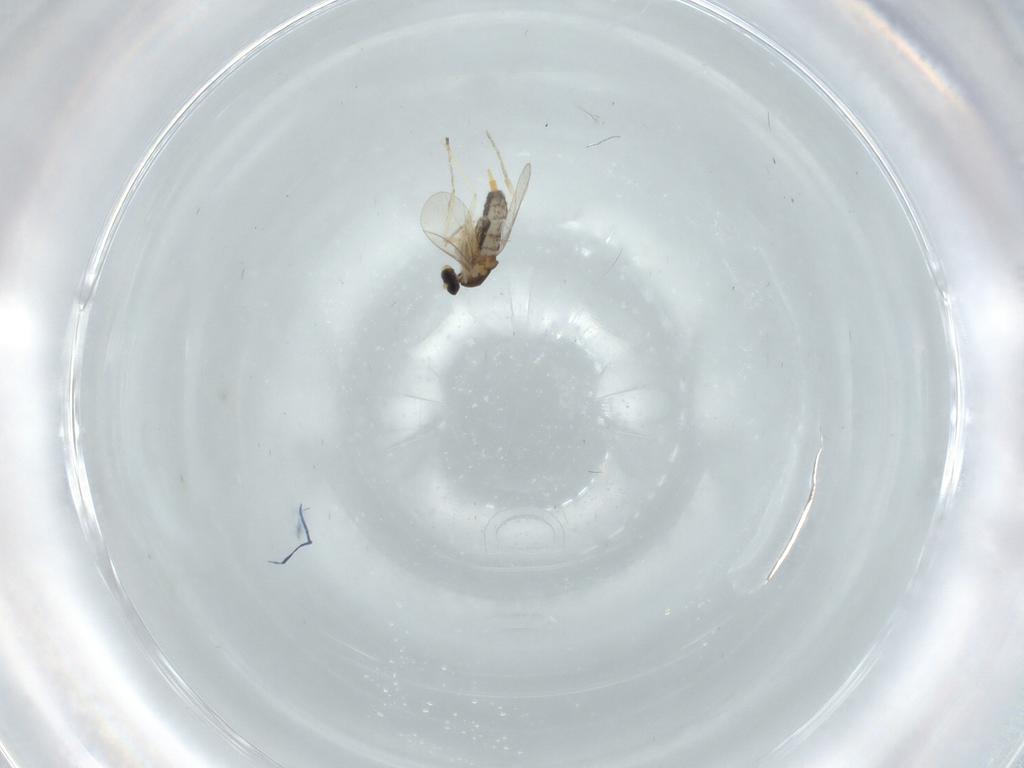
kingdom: Animalia
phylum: Arthropoda
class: Insecta
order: Diptera
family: Cecidomyiidae
